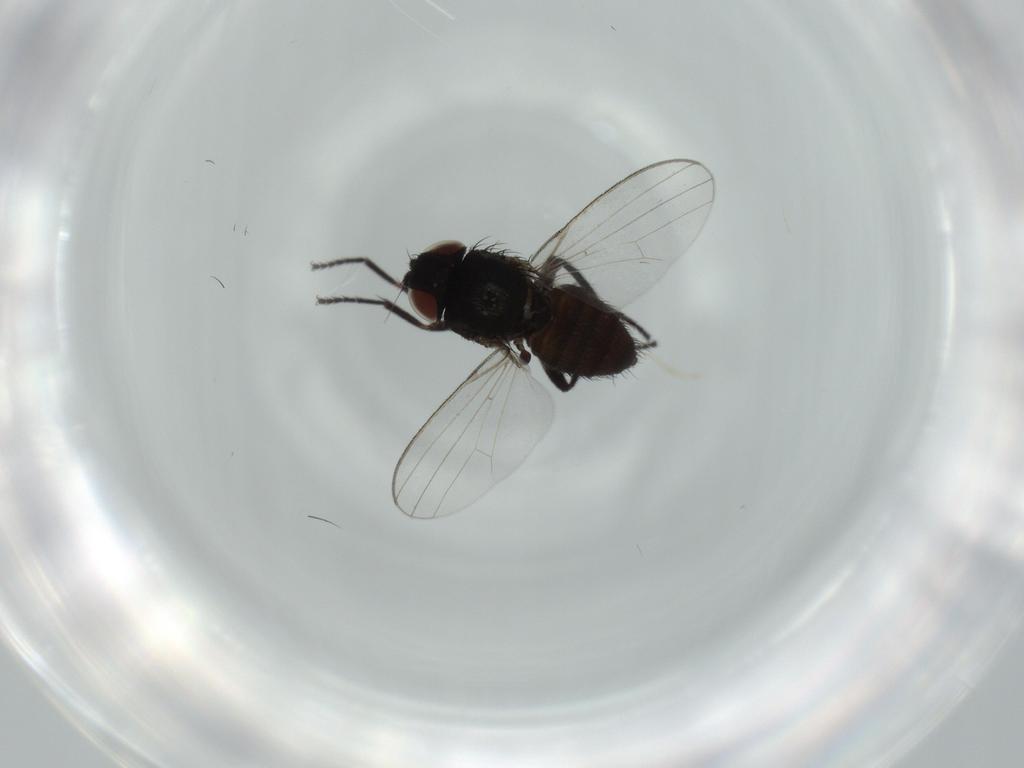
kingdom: Animalia
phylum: Arthropoda
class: Insecta
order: Diptera
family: Milichiidae
